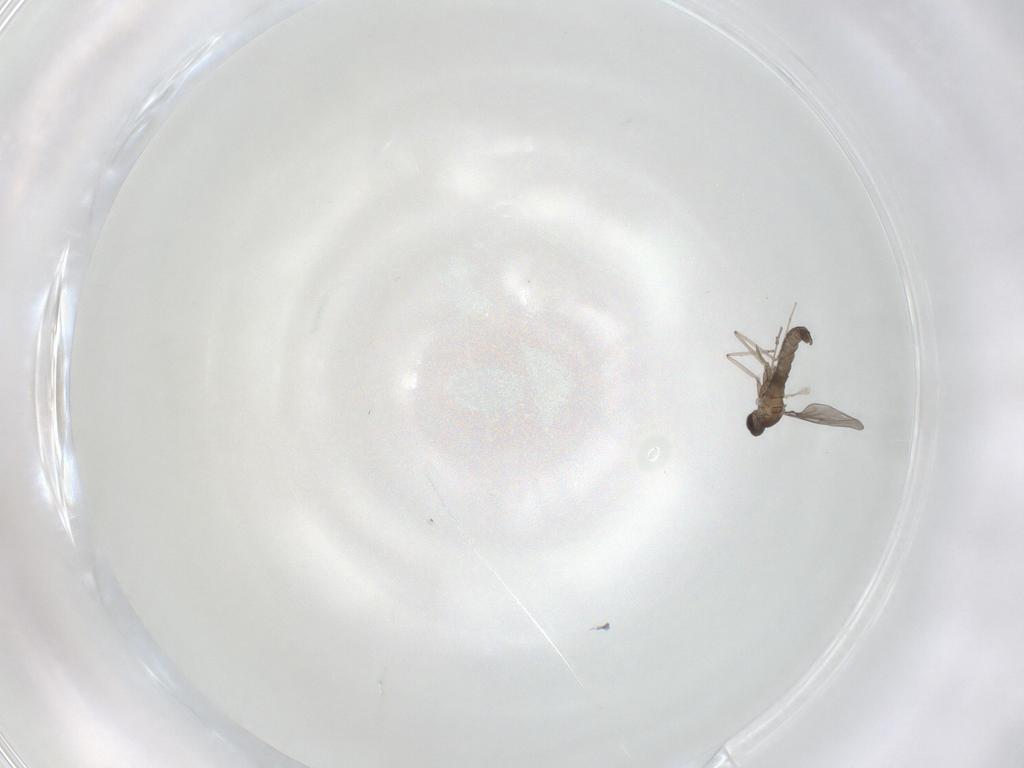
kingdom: Animalia
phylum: Arthropoda
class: Insecta
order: Diptera
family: Cecidomyiidae
